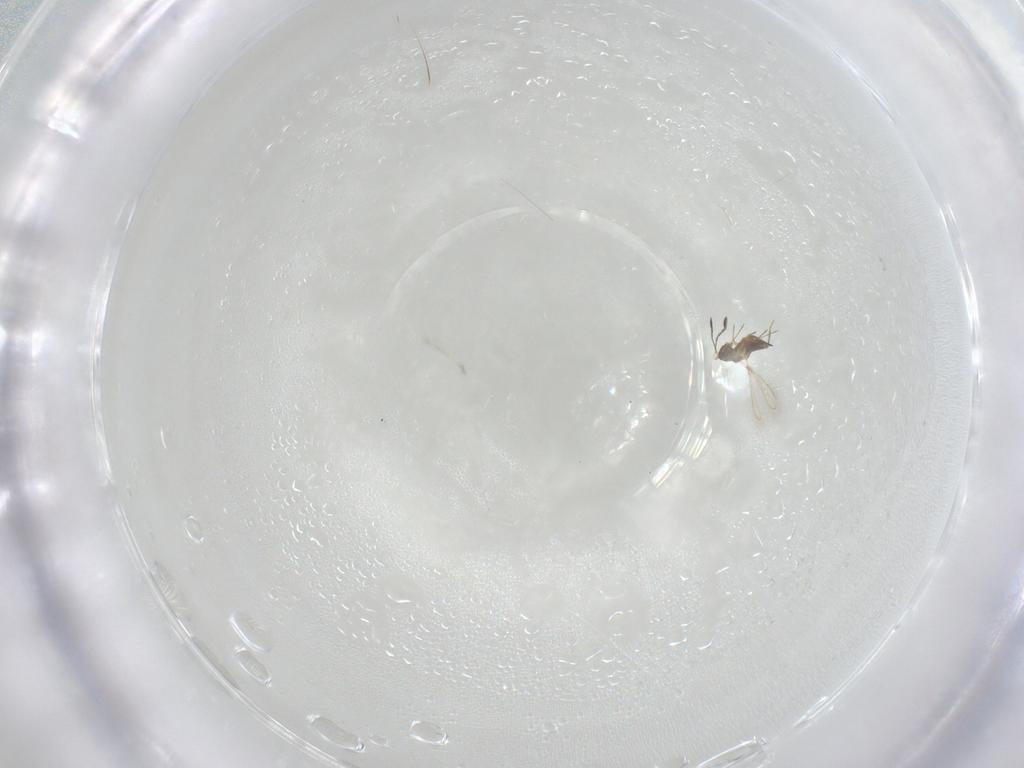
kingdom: Animalia
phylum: Arthropoda
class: Insecta
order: Hymenoptera
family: Mymaridae
